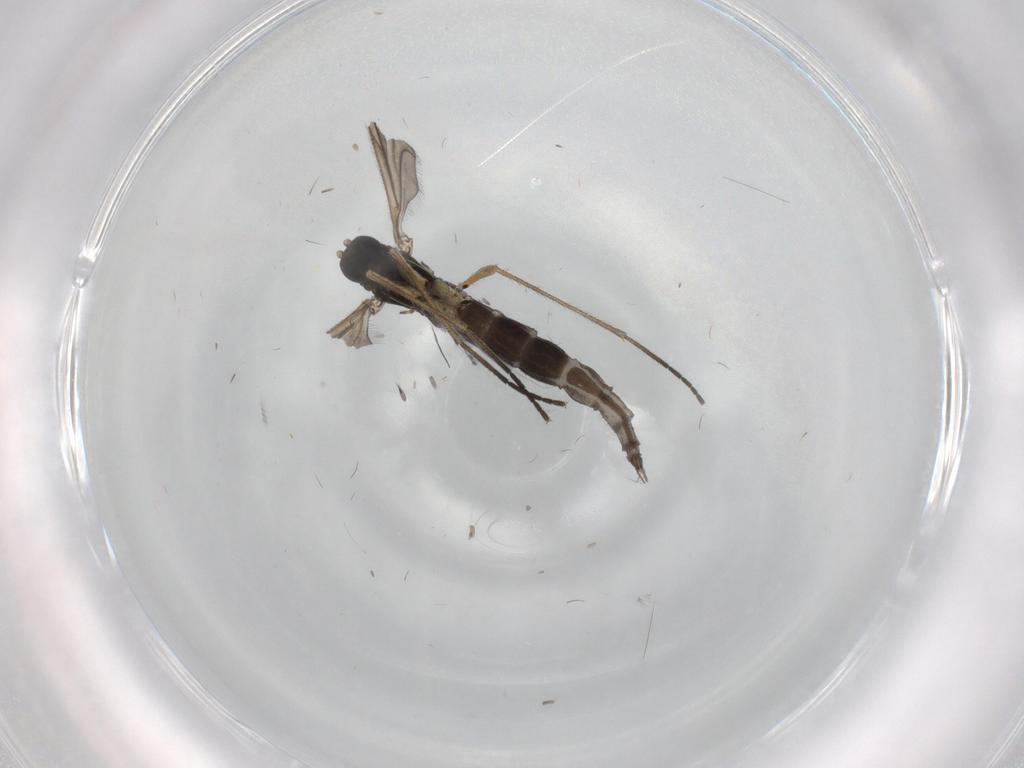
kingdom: Animalia
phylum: Arthropoda
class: Insecta
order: Diptera
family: Sciaridae
